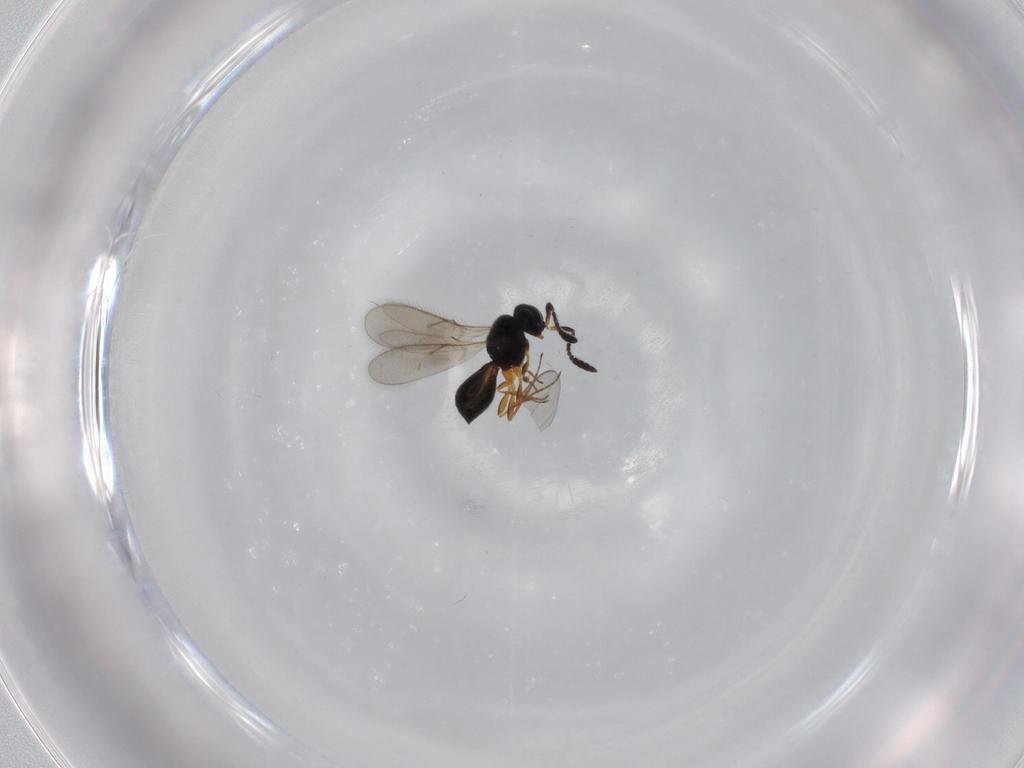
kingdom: Animalia
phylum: Arthropoda
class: Insecta
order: Hymenoptera
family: Scelionidae
